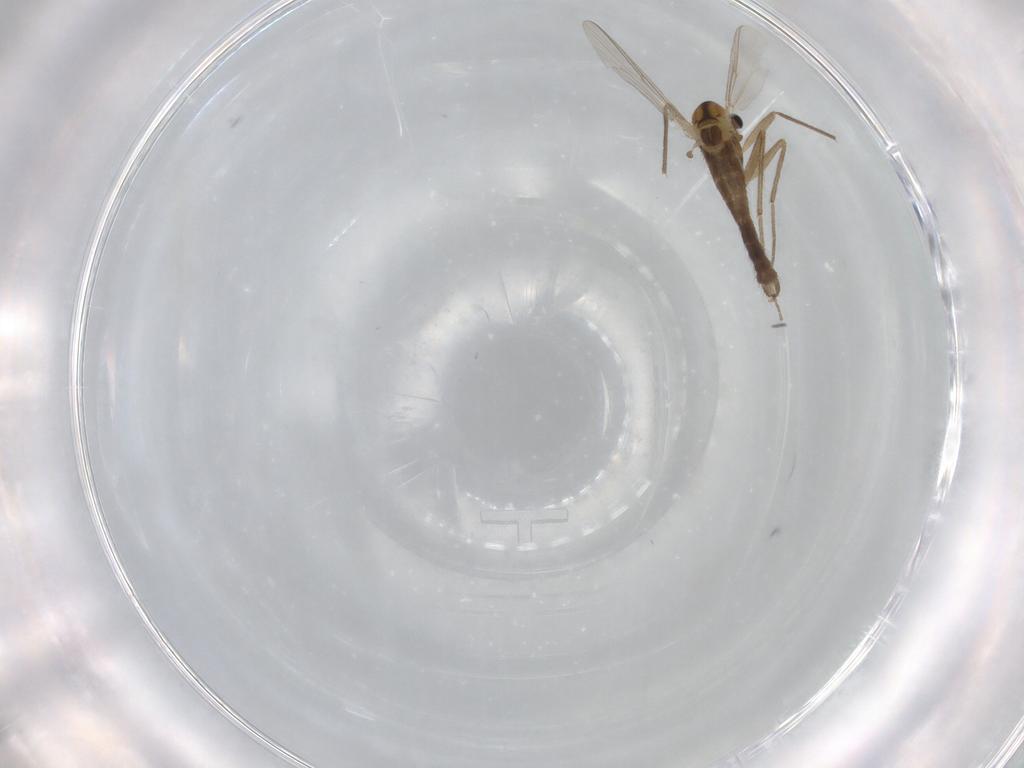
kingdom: Animalia
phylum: Arthropoda
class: Insecta
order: Diptera
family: Chironomidae
